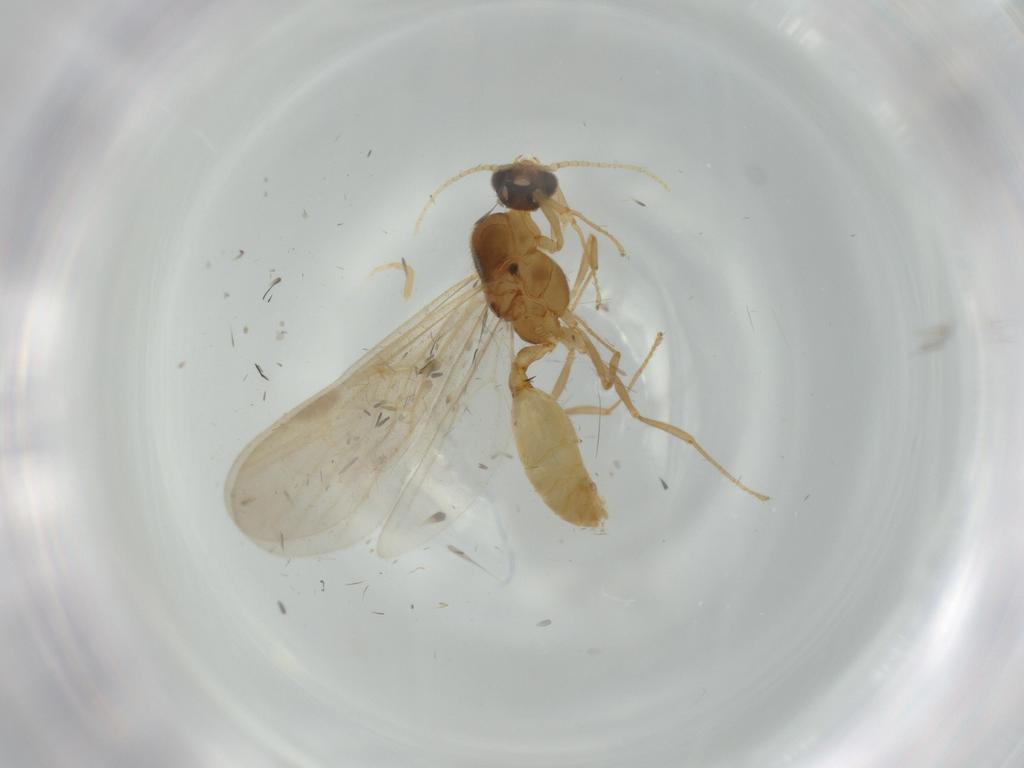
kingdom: Animalia
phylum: Arthropoda
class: Insecta
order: Hymenoptera
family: Formicidae
